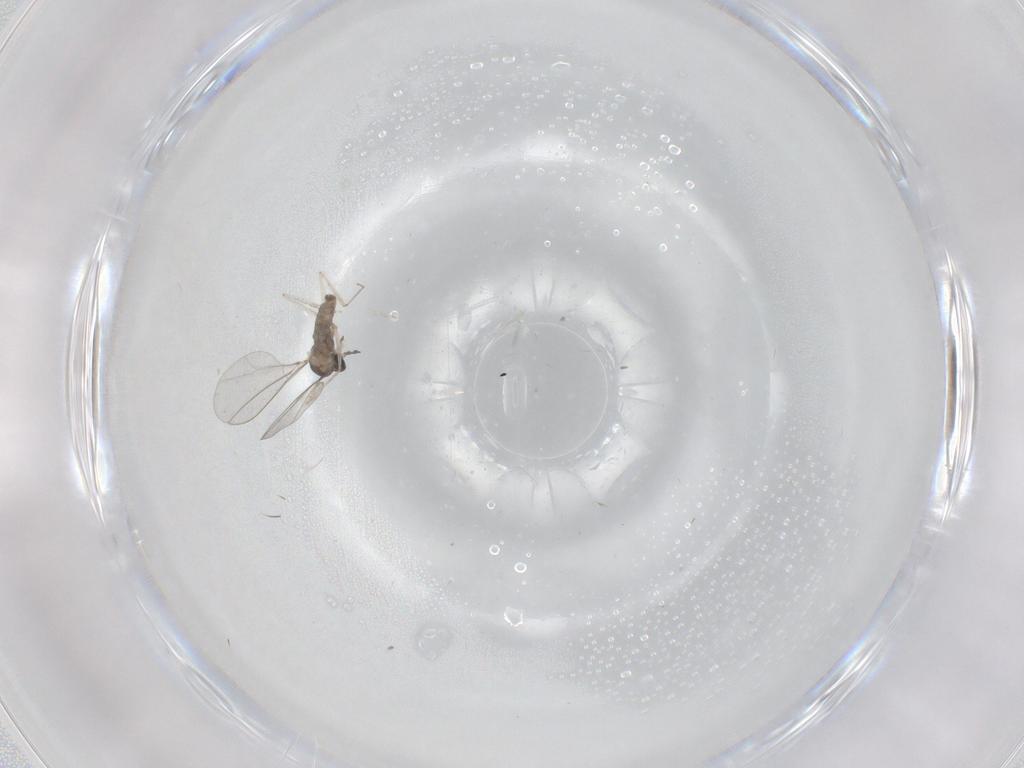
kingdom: Animalia
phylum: Arthropoda
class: Insecta
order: Diptera
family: Cecidomyiidae
